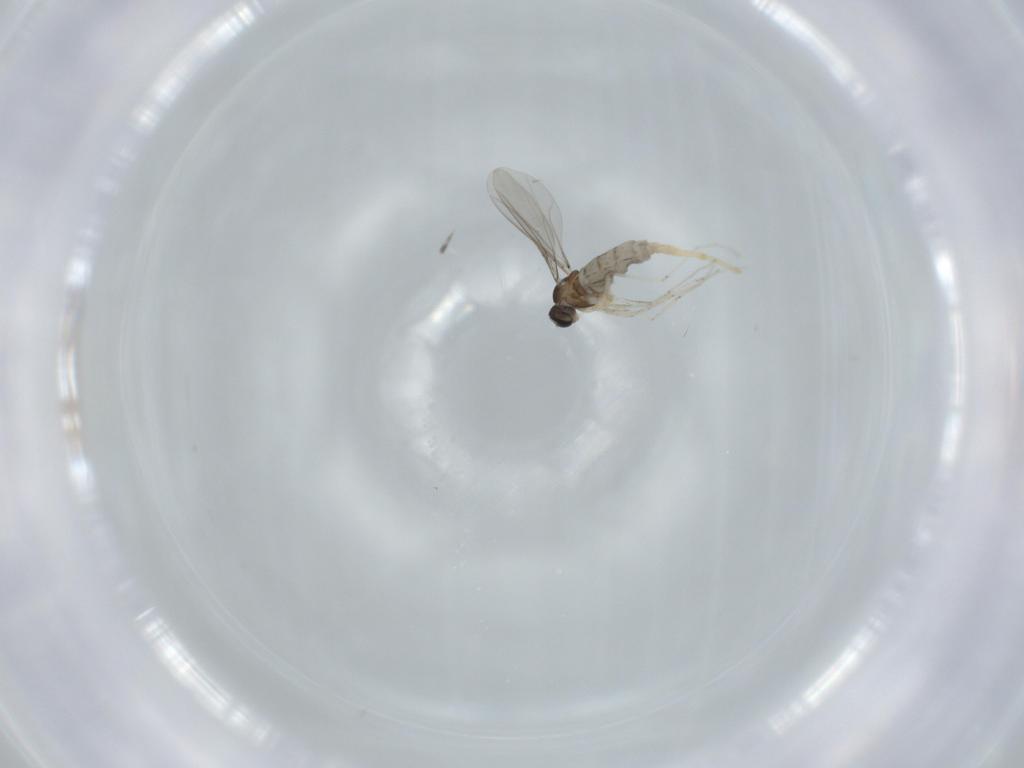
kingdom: Animalia
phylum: Arthropoda
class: Insecta
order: Diptera
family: Cecidomyiidae
